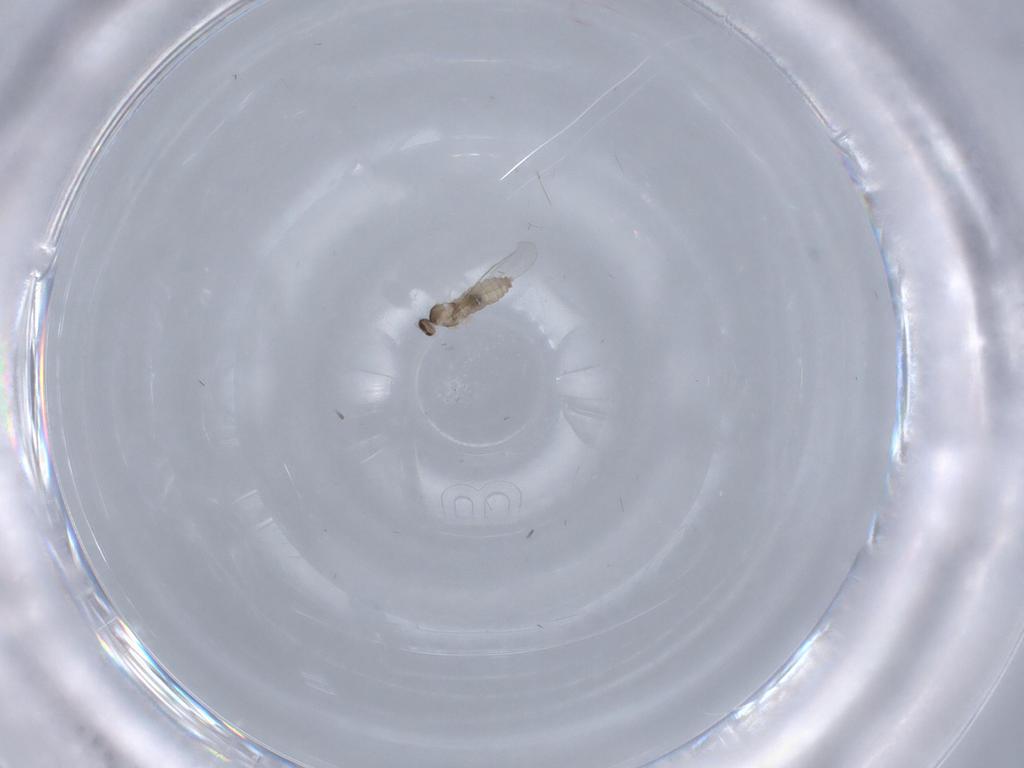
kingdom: Animalia
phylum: Arthropoda
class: Insecta
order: Diptera
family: Cecidomyiidae
